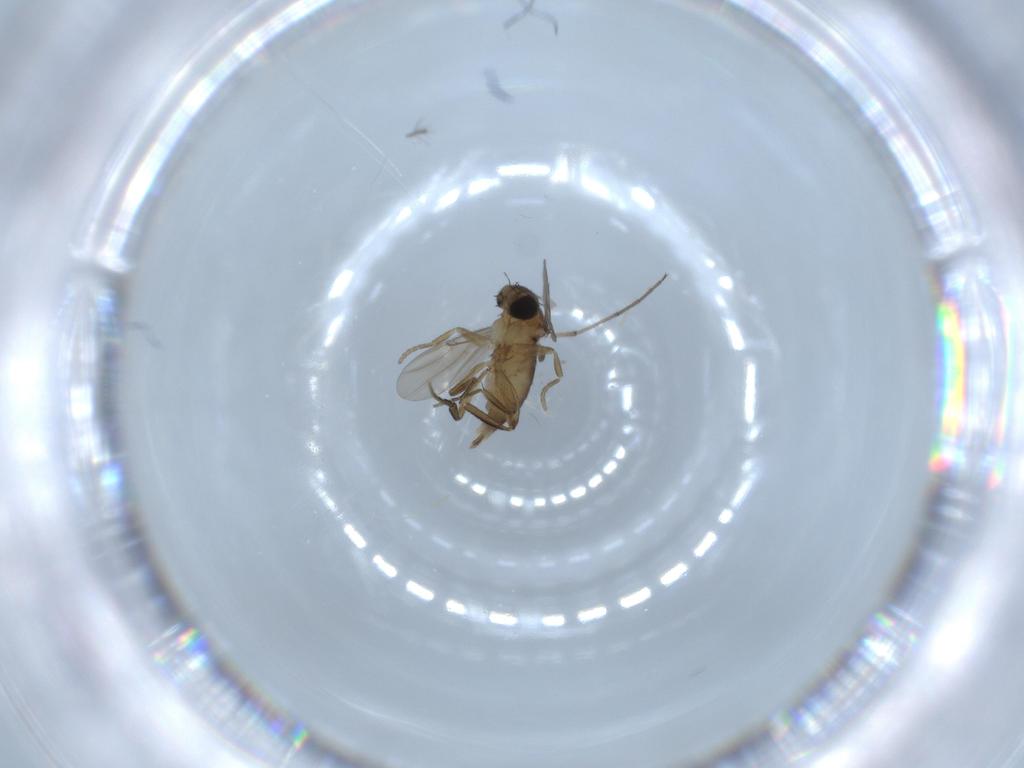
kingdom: Animalia
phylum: Arthropoda
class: Insecta
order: Diptera
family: Phoridae
